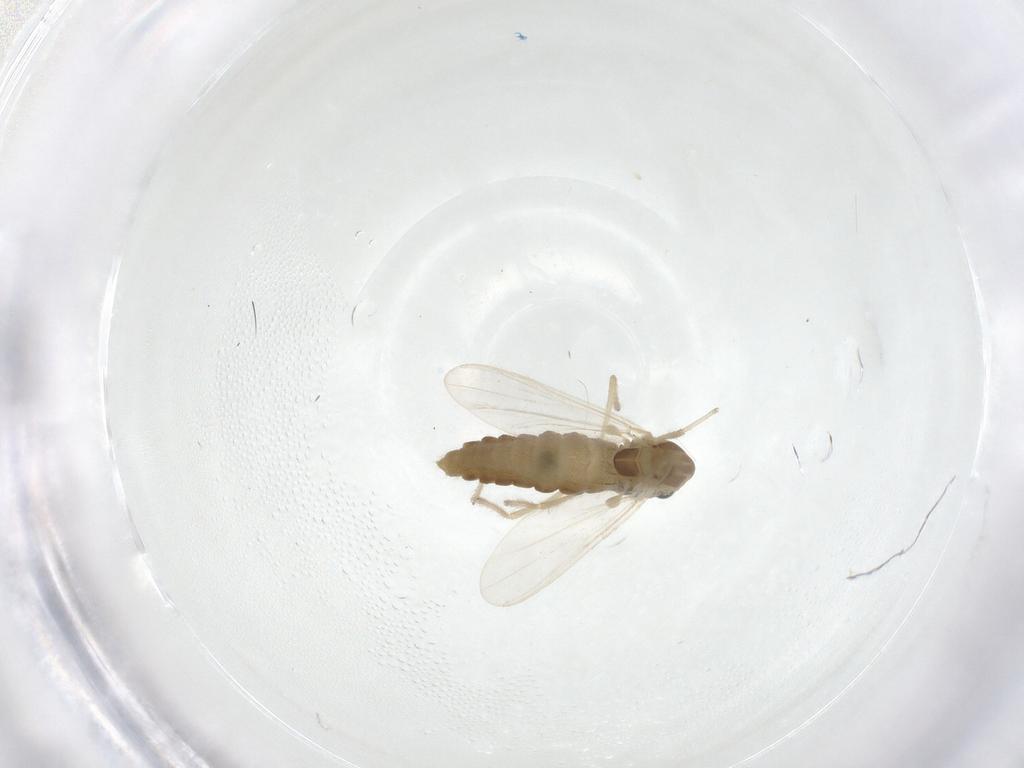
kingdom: Animalia
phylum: Arthropoda
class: Insecta
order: Diptera
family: Chironomidae
